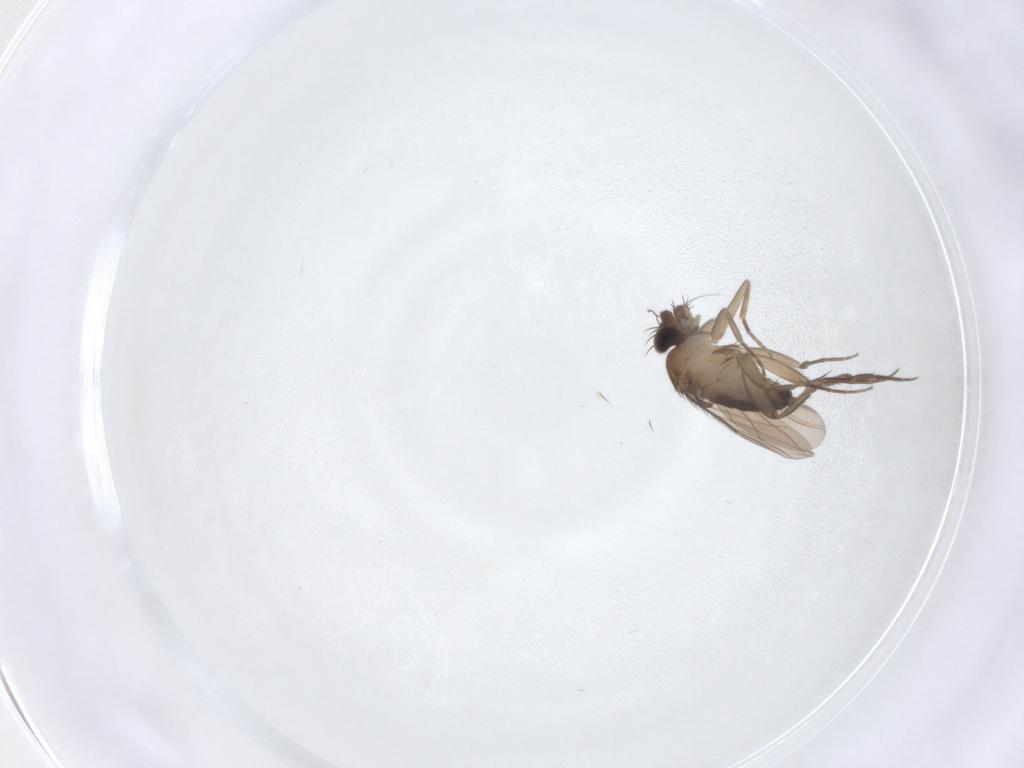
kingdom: Animalia
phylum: Arthropoda
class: Insecta
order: Diptera
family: Phoridae
